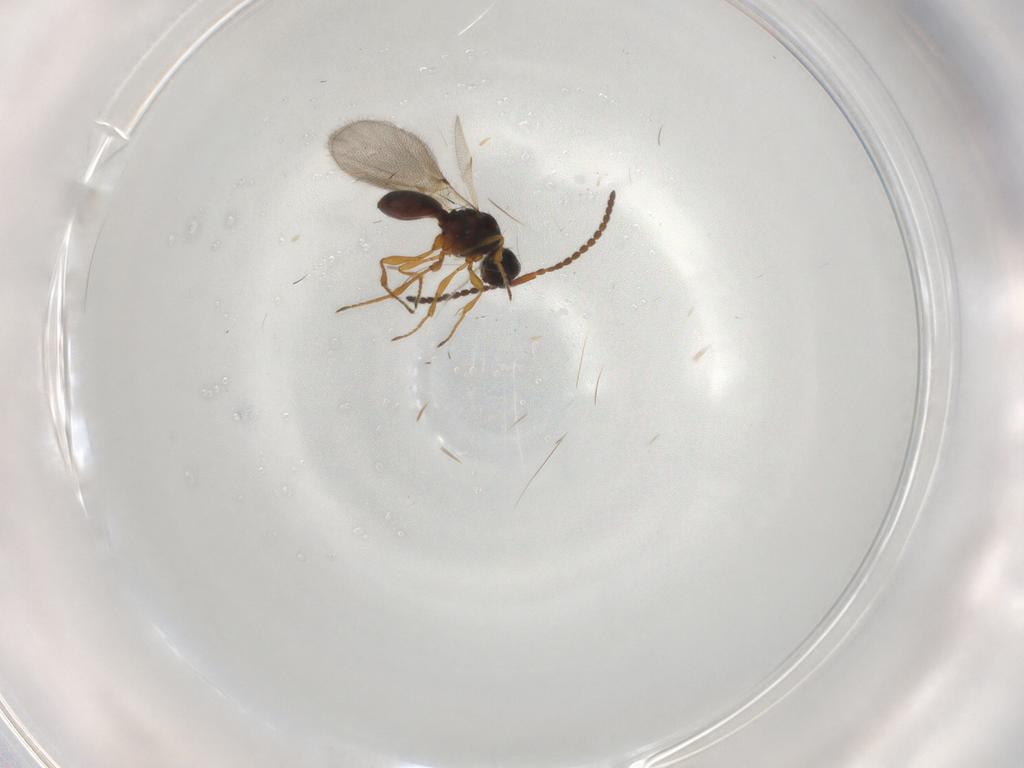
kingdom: Animalia
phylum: Arthropoda
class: Insecta
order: Hymenoptera
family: Diapriidae
